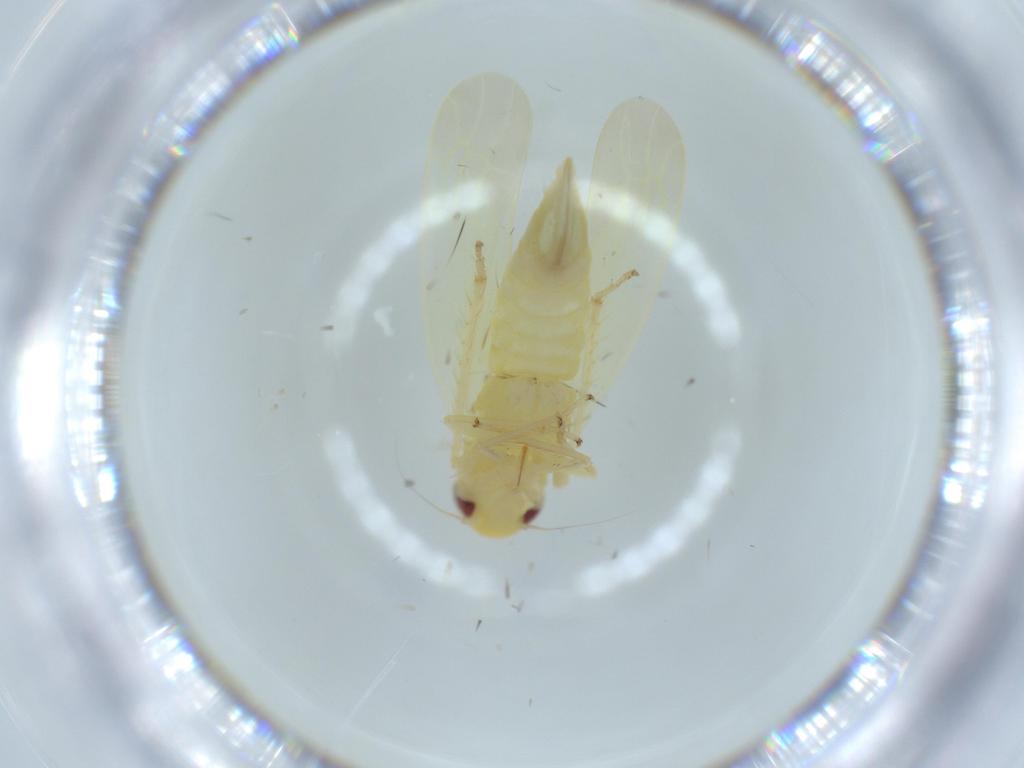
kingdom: Animalia
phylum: Arthropoda
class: Insecta
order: Hemiptera
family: Cicadellidae
